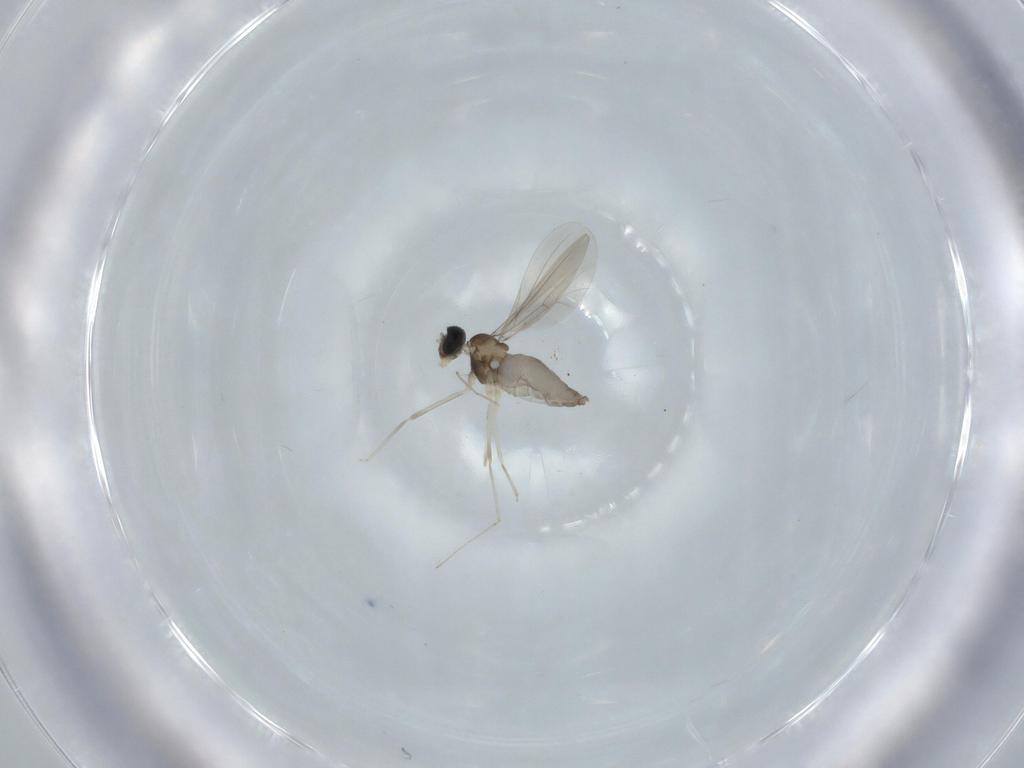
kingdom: Animalia
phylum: Arthropoda
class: Insecta
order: Diptera
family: Cecidomyiidae
